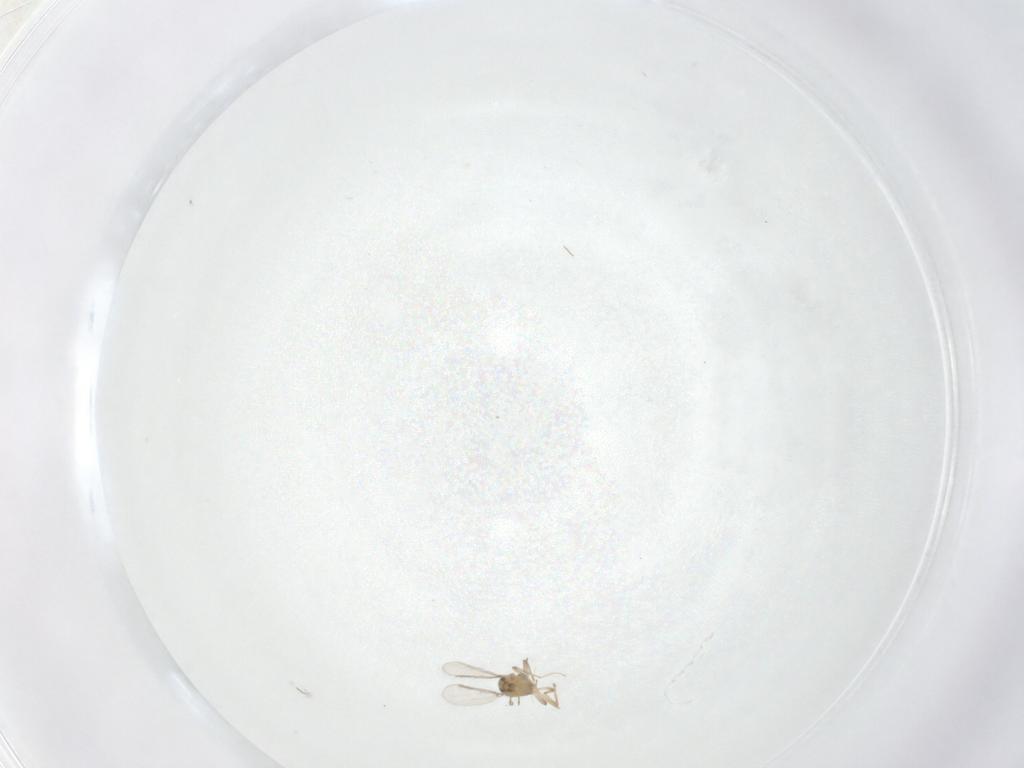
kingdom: Animalia
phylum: Arthropoda
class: Insecta
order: Diptera
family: Chironomidae
